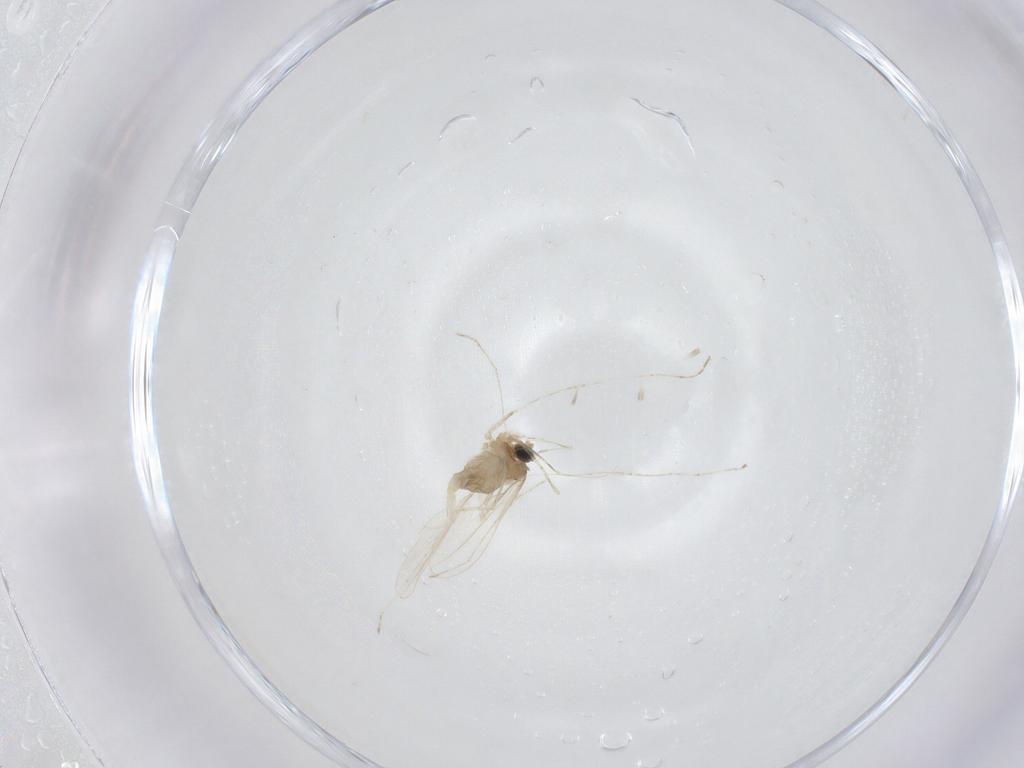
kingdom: Animalia
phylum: Arthropoda
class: Insecta
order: Diptera
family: Cecidomyiidae
